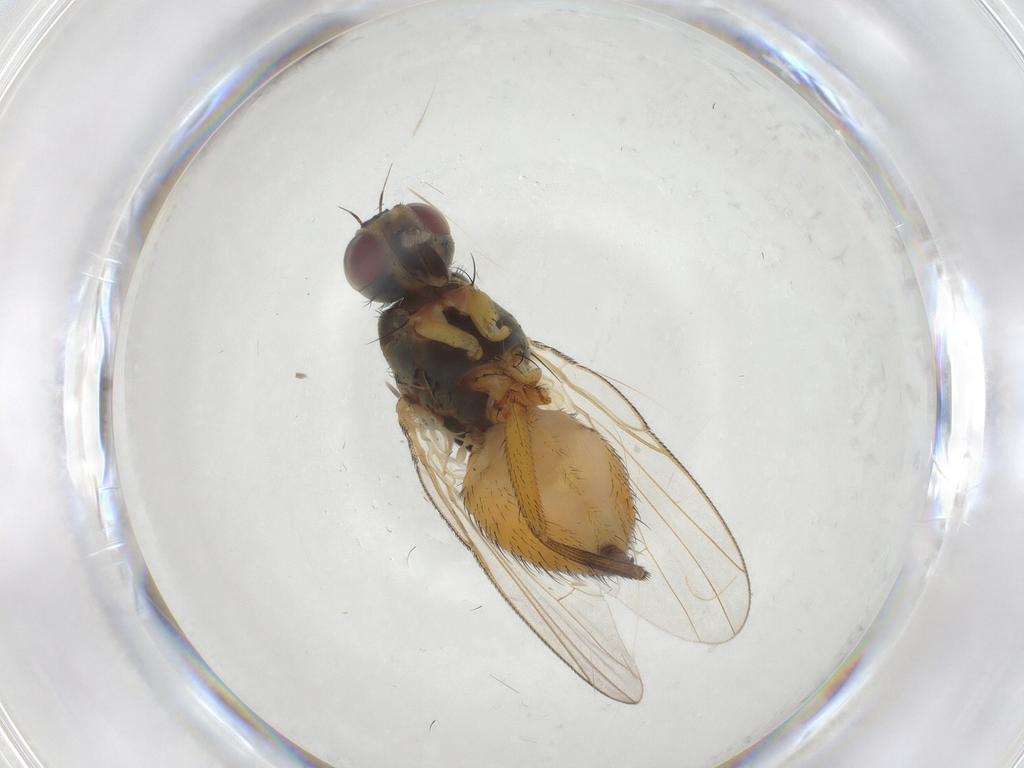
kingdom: Animalia
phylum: Arthropoda
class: Insecta
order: Diptera
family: Muscidae
